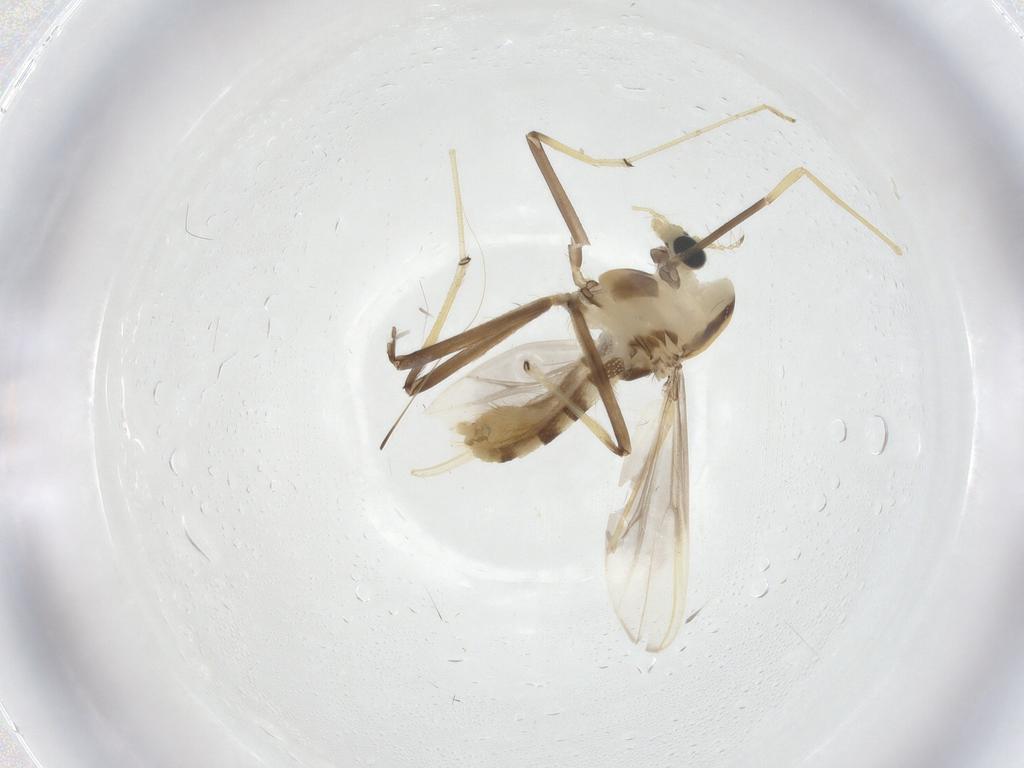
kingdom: Animalia
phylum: Arthropoda
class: Insecta
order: Diptera
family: Chironomidae
